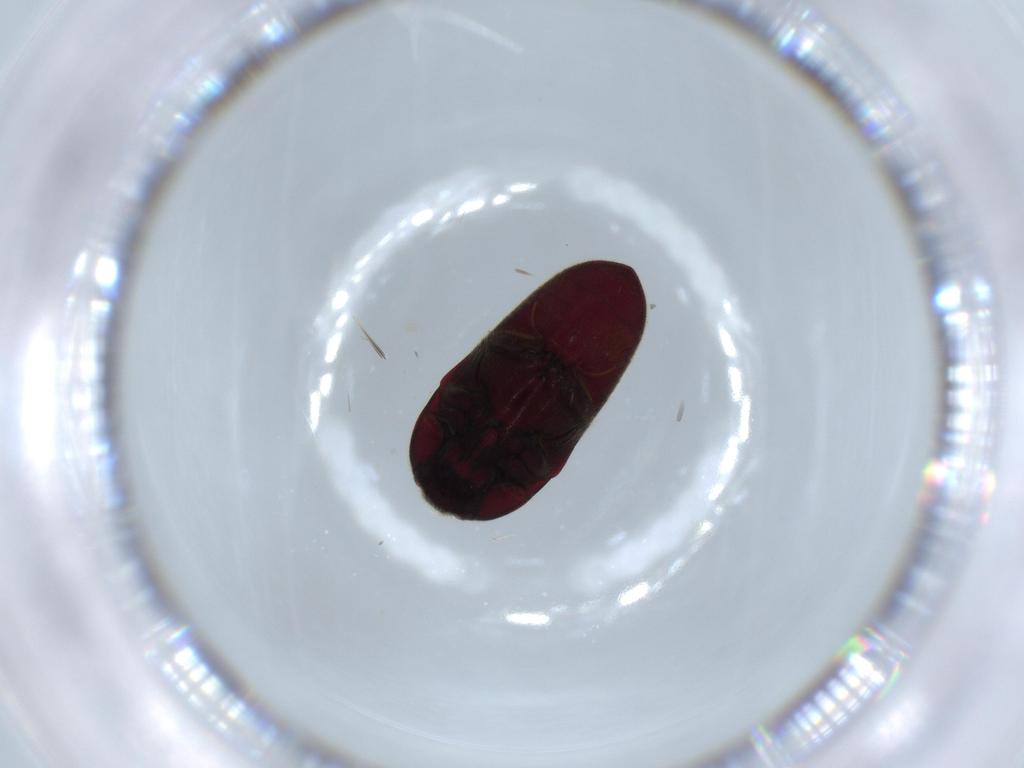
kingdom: Animalia
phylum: Arthropoda
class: Insecta
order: Coleoptera
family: Throscidae
